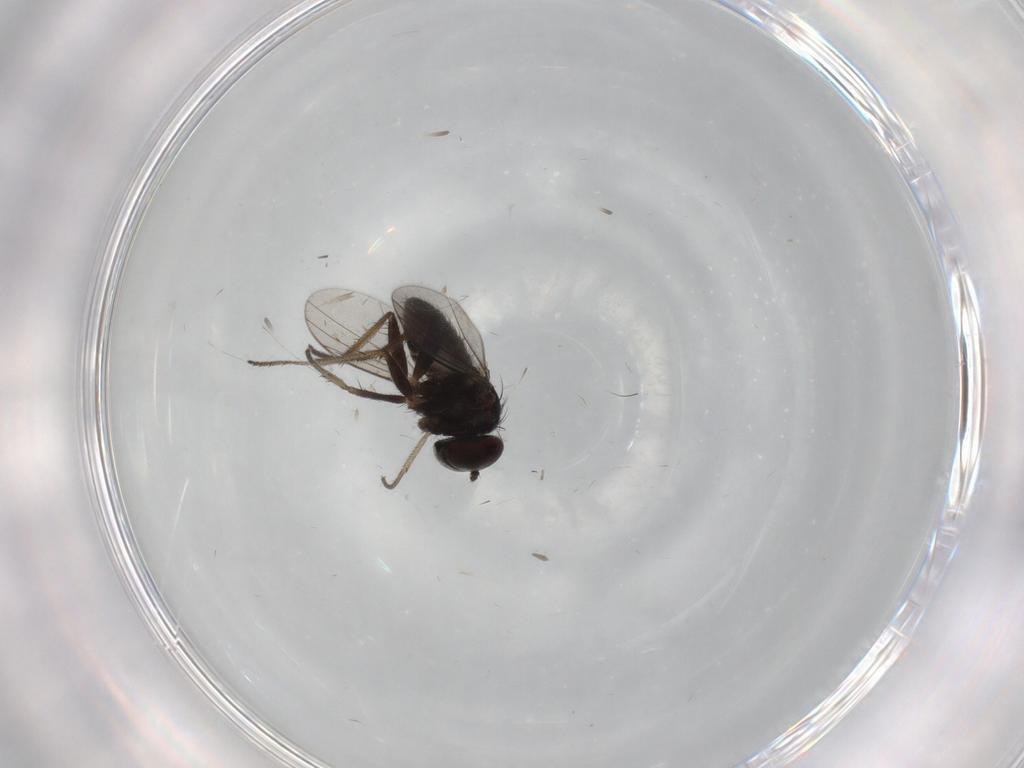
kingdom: Animalia
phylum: Arthropoda
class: Insecta
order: Diptera
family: Dolichopodidae
